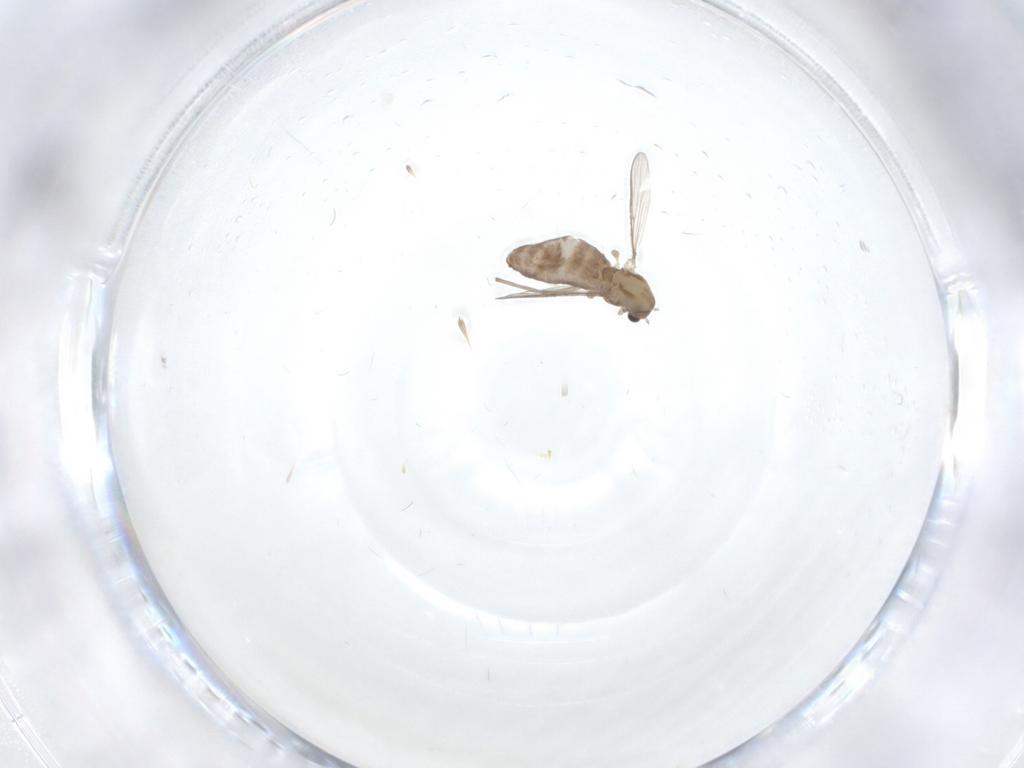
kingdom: Animalia
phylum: Arthropoda
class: Insecta
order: Diptera
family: Chironomidae
